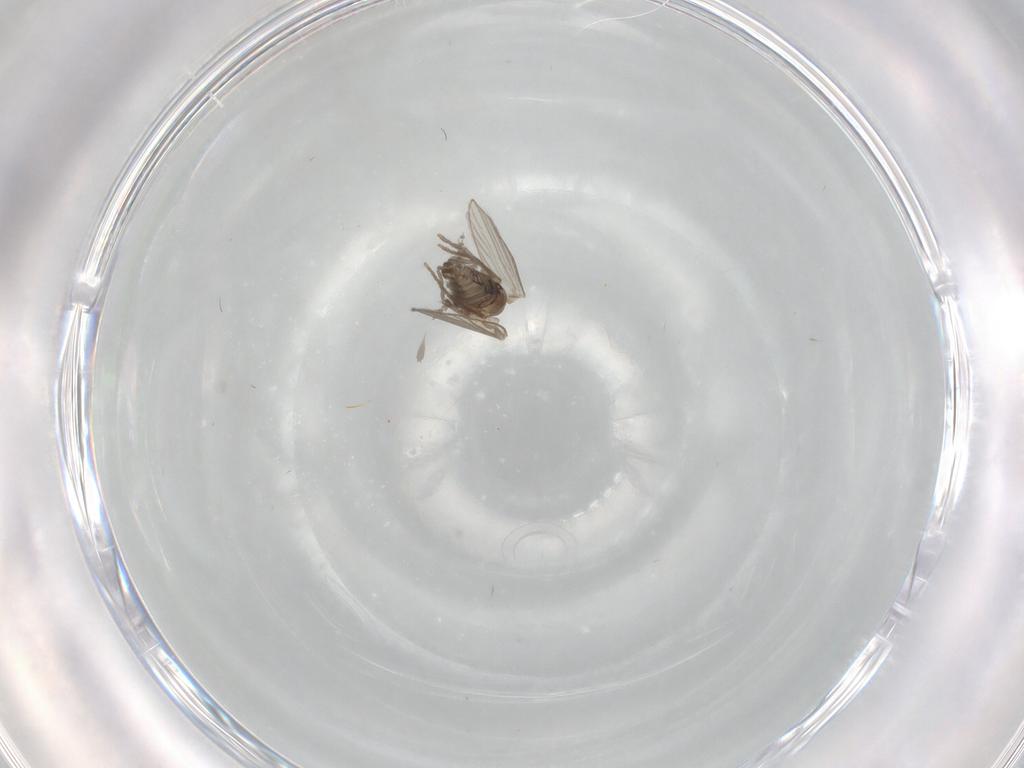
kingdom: Animalia
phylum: Arthropoda
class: Insecta
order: Diptera
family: Psychodidae
